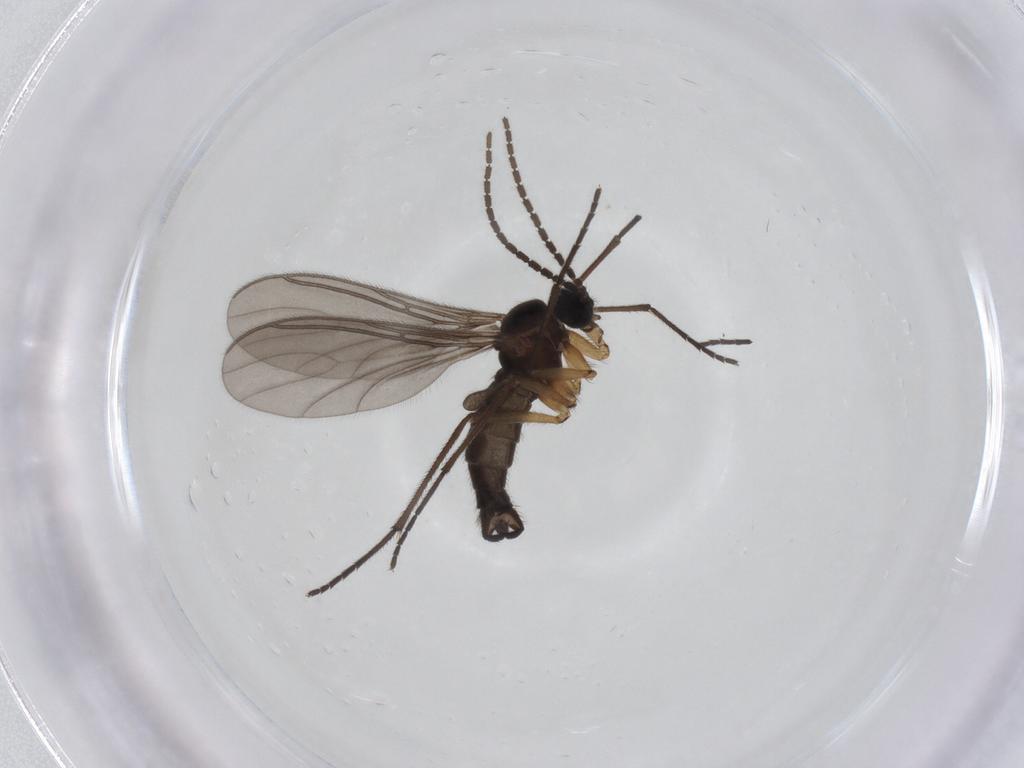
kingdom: Animalia
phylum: Arthropoda
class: Insecta
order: Diptera
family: Sciaridae
